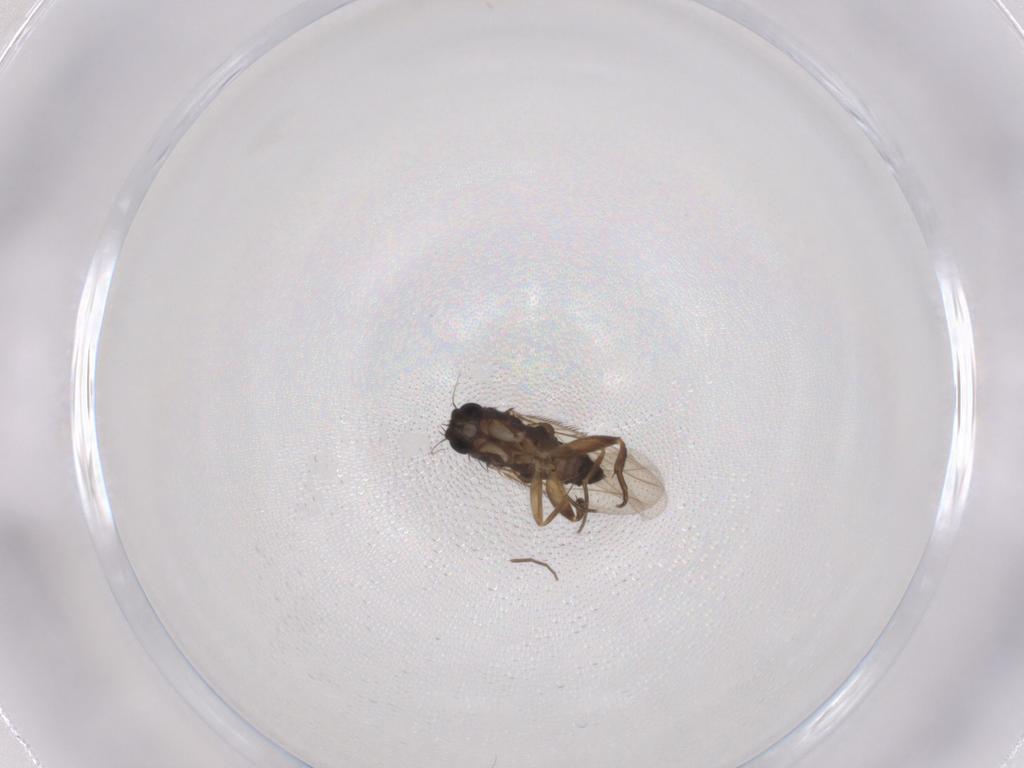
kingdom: Animalia
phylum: Arthropoda
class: Insecta
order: Diptera
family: Phoridae
